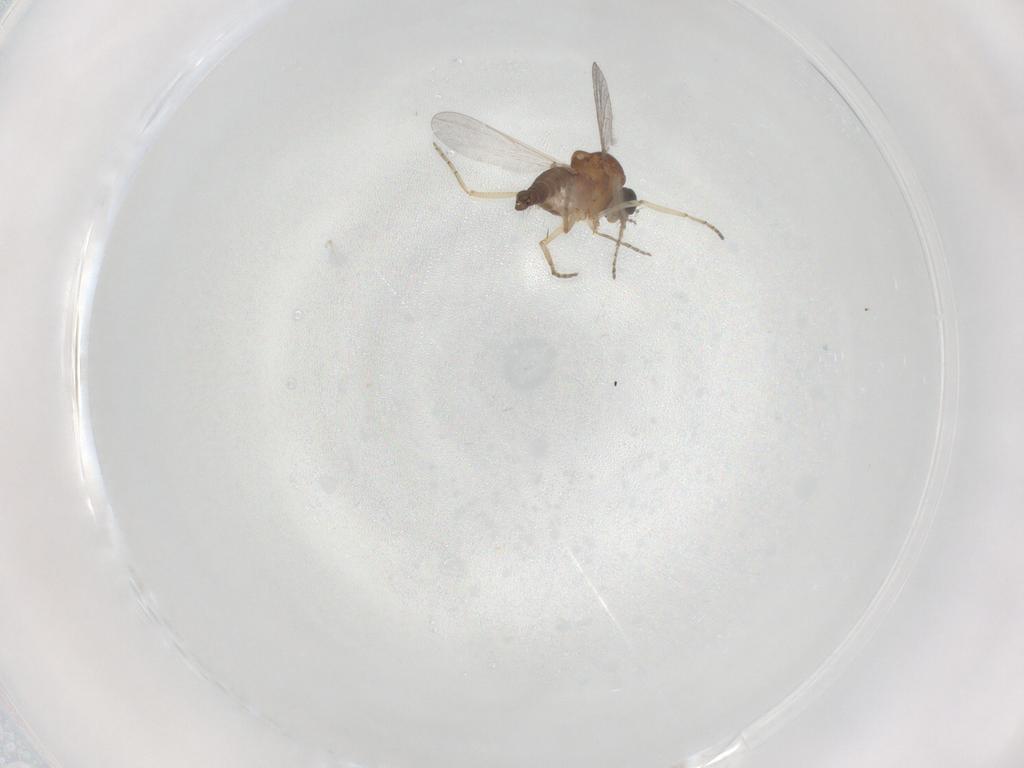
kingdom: Animalia
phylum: Arthropoda
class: Insecta
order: Diptera
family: Ceratopogonidae
